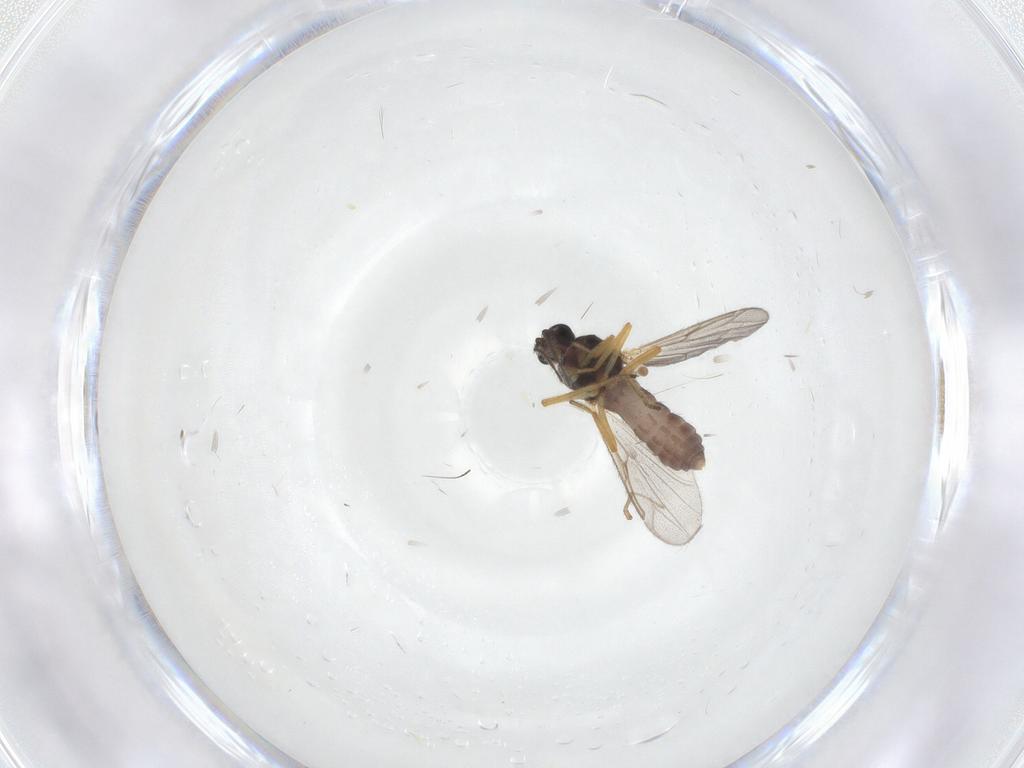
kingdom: Animalia
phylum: Arthropoda
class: Insecta
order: Diptera
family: Ceratopogonidae
